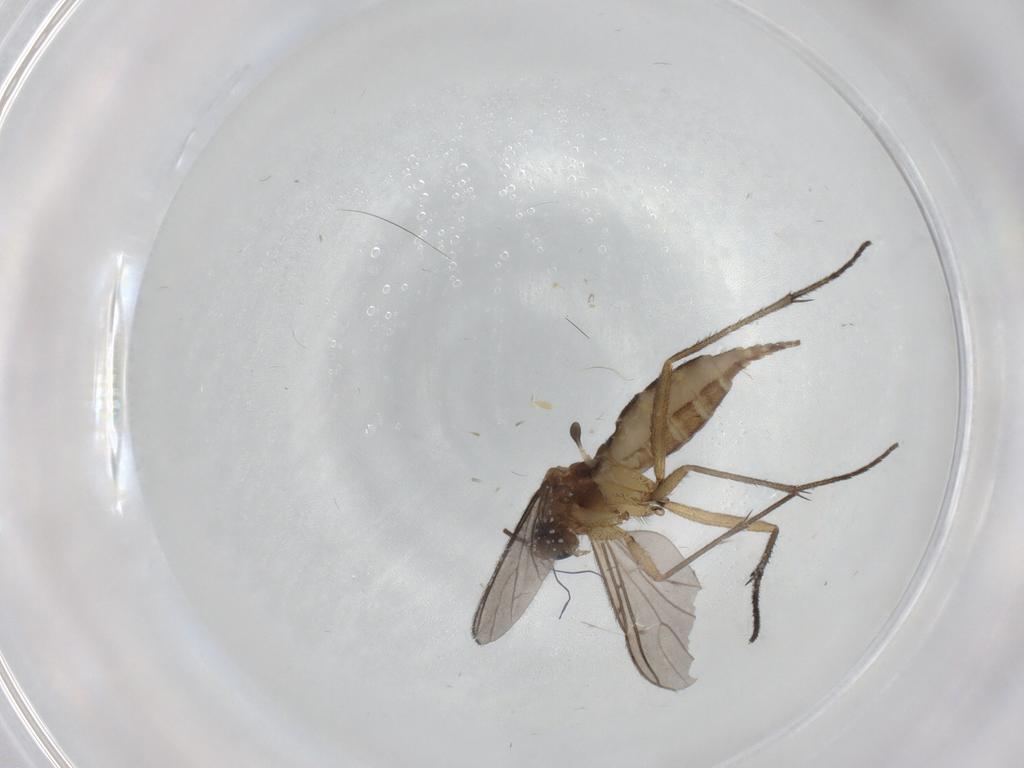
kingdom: Animalia
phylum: Arthropoda
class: Insecta
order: Diptera
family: Sciaridae
